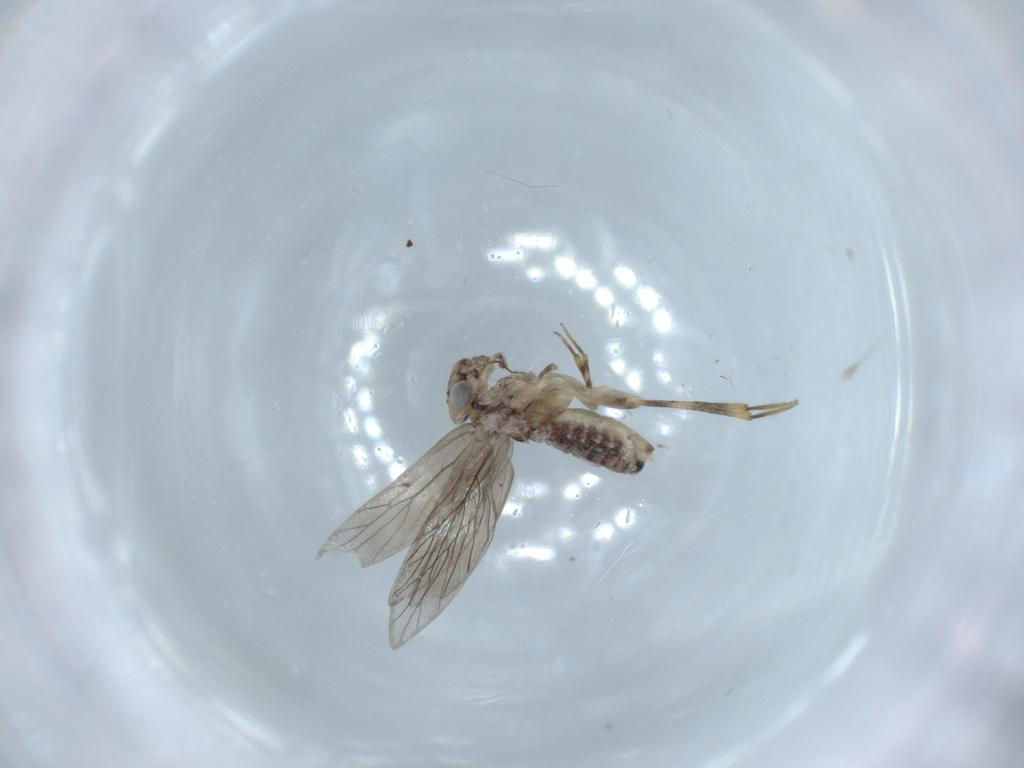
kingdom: Animalia
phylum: Arthropoda
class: Insecta
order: Psocodea
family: Lepidopsocidae
